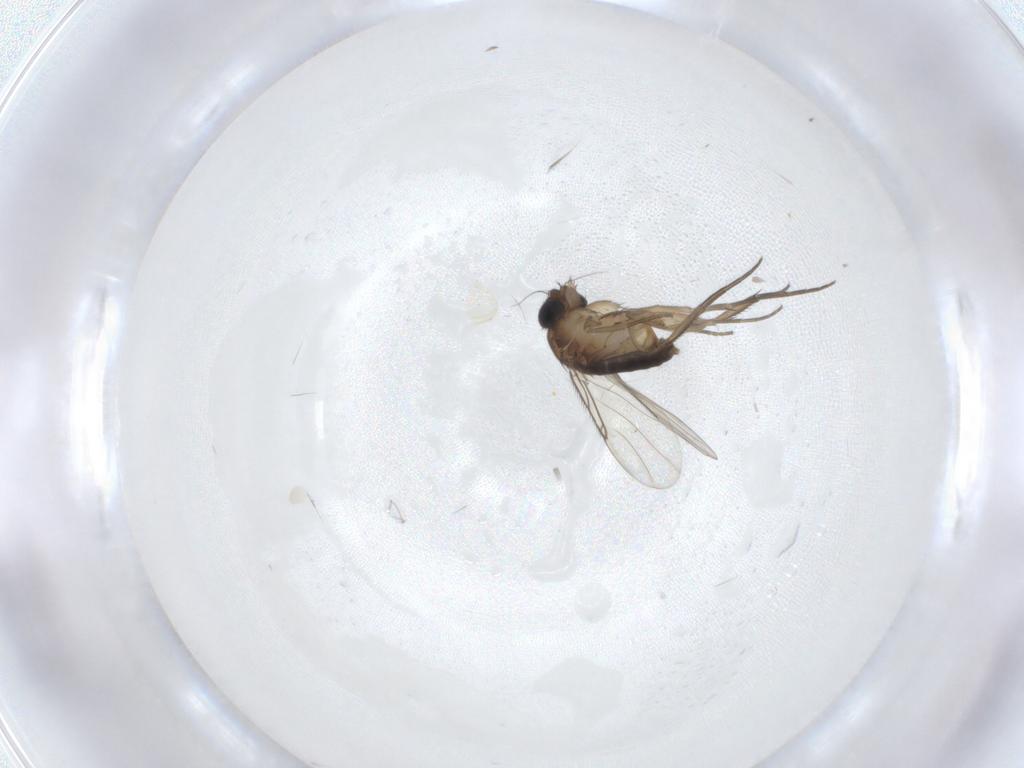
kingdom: Animalia
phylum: Arthropoda
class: Insecta
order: Diptera
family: Phoridae
